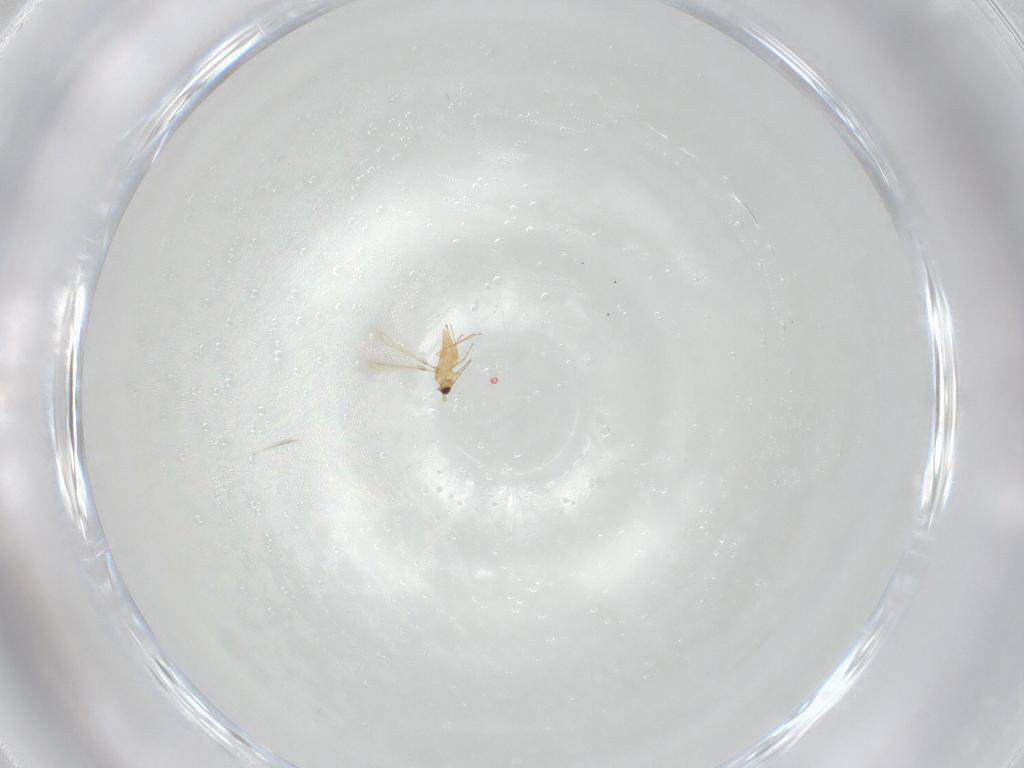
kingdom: Animalia
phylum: Arthropoda
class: Insecta
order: Hymenoptera
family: Mymaridae
